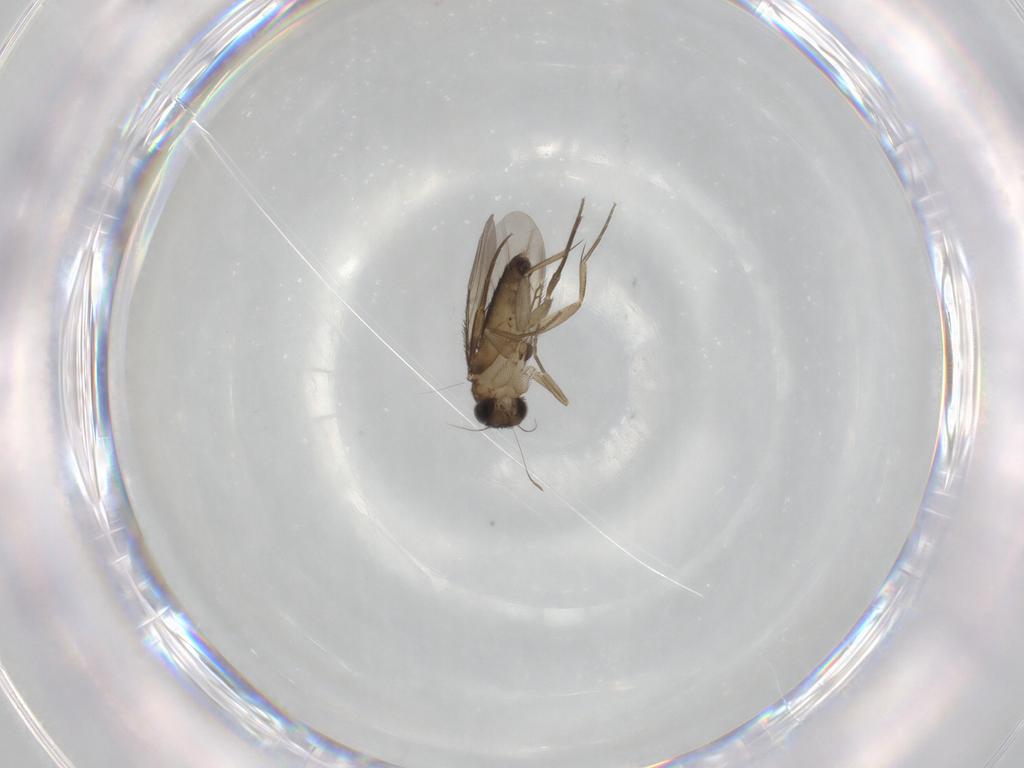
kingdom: Animalia
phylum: Arthropoda
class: Insecta
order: Diptera
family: Phoridae
